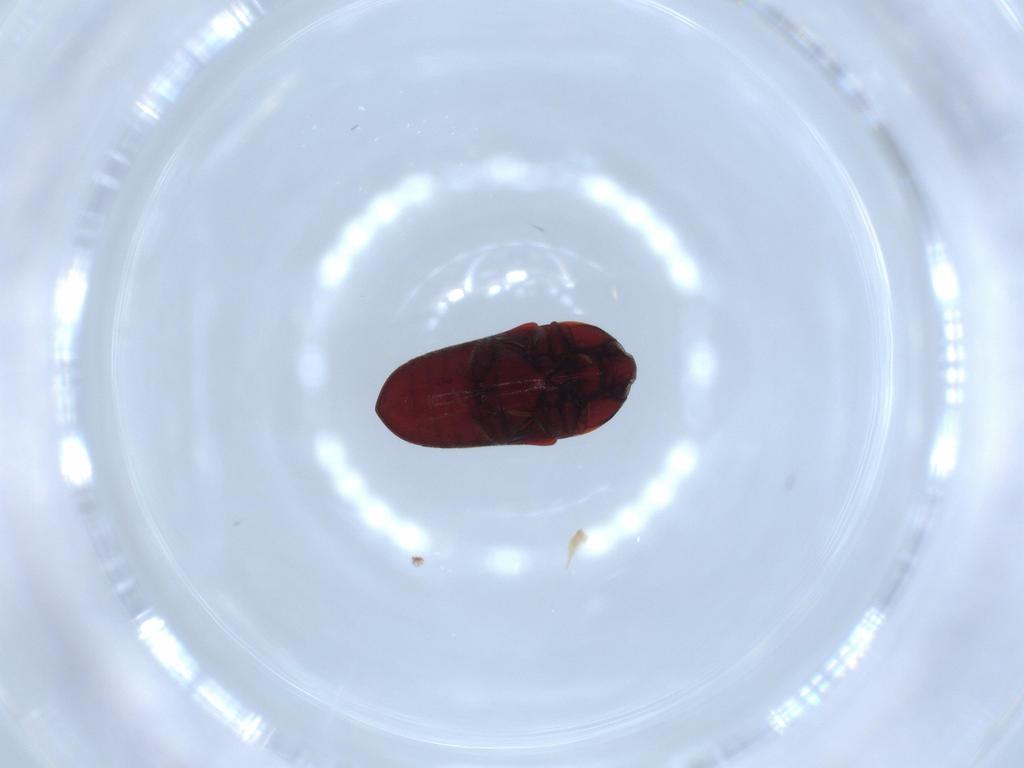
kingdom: Animalia
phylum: Arthropoda
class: Insecta
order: Coleoptera
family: Throscidae
